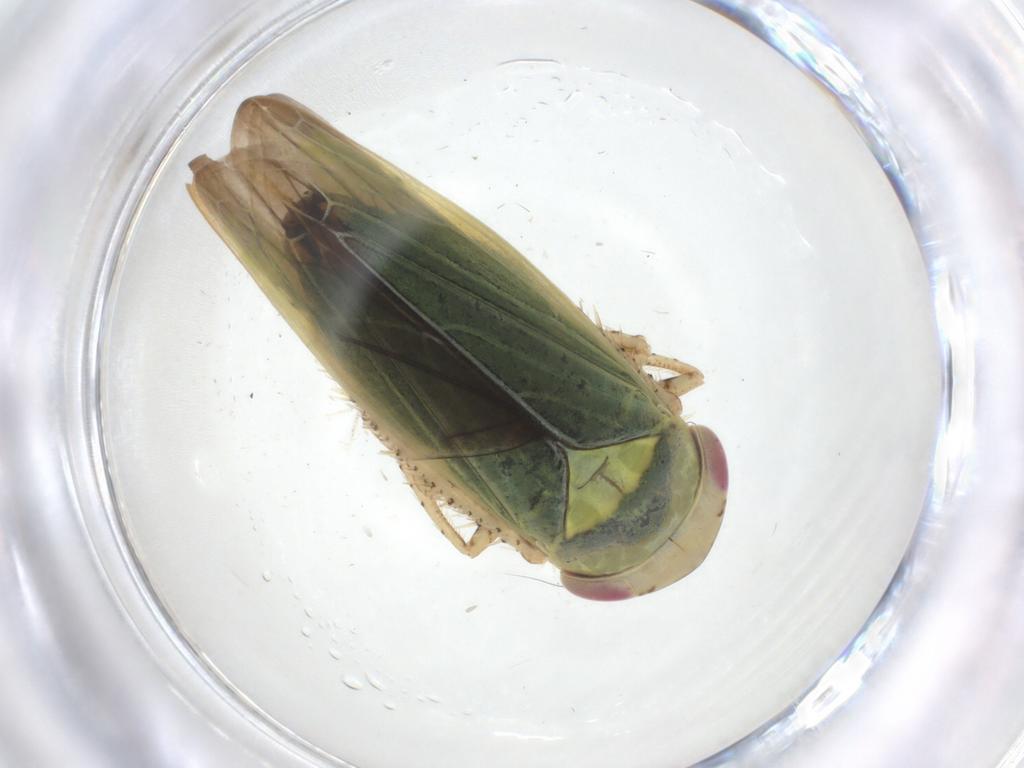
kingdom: Animalia
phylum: Arthropoda
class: Insecta
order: Hemiptera
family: Cicadellidae
